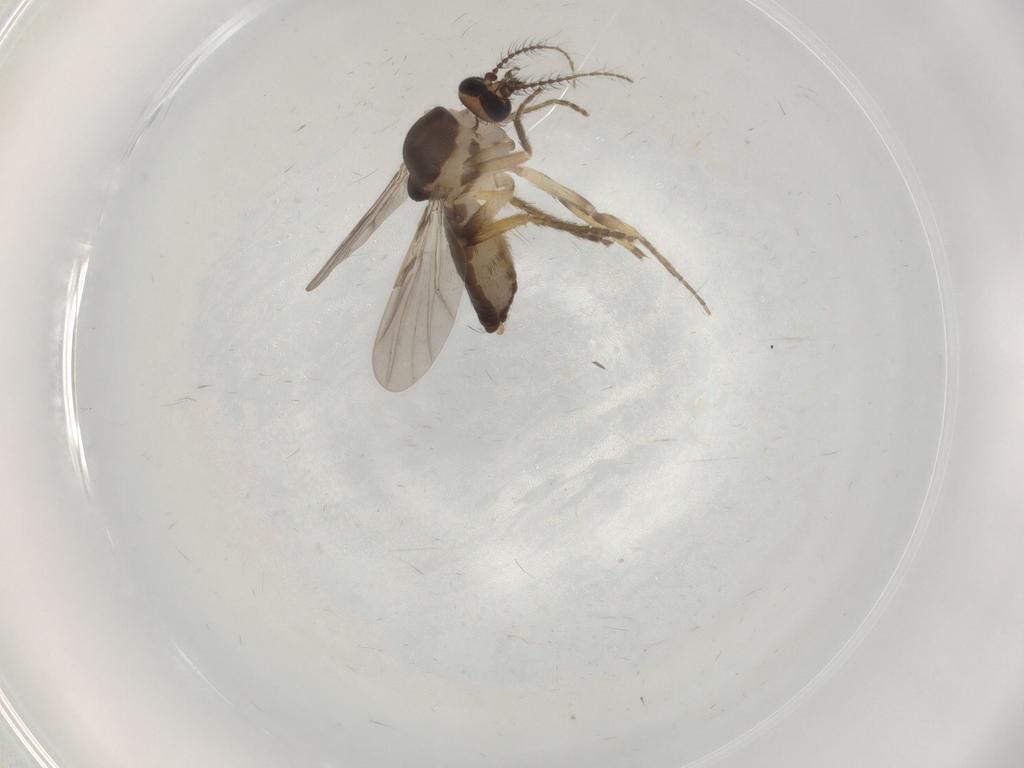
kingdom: Animalia
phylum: Arthropoda
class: Insecta
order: Diptera
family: Ceratopogonidae
